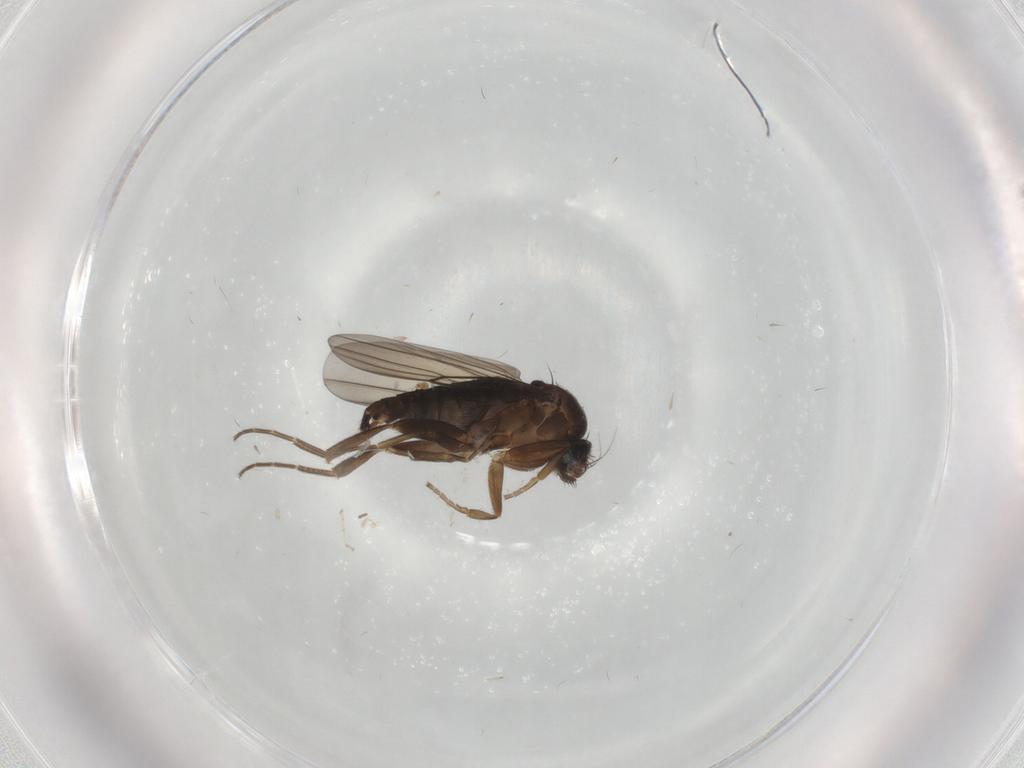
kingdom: Animalia
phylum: Arthropoda
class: Insecta
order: Diptera
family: Phoridae
